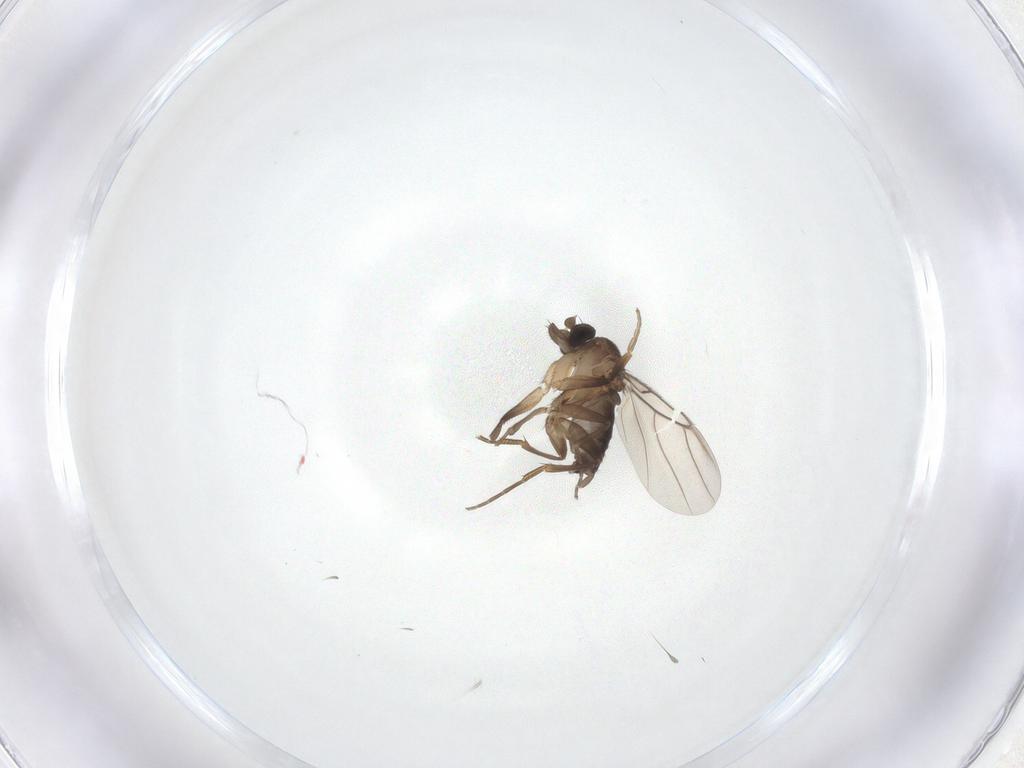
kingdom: Animalia
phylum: Arthropoda
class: Insecta
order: Diptera
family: Phoridae
